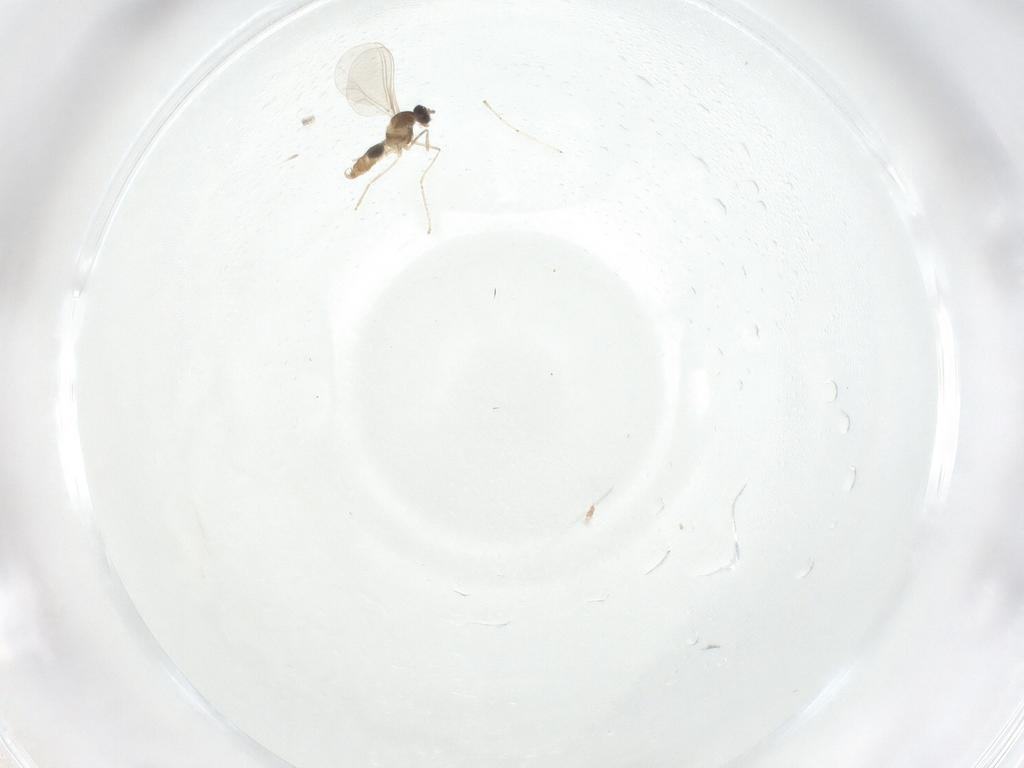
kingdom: Animalia
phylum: Arthropoda
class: Insecta
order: Diptera
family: Cecidomyiidae
